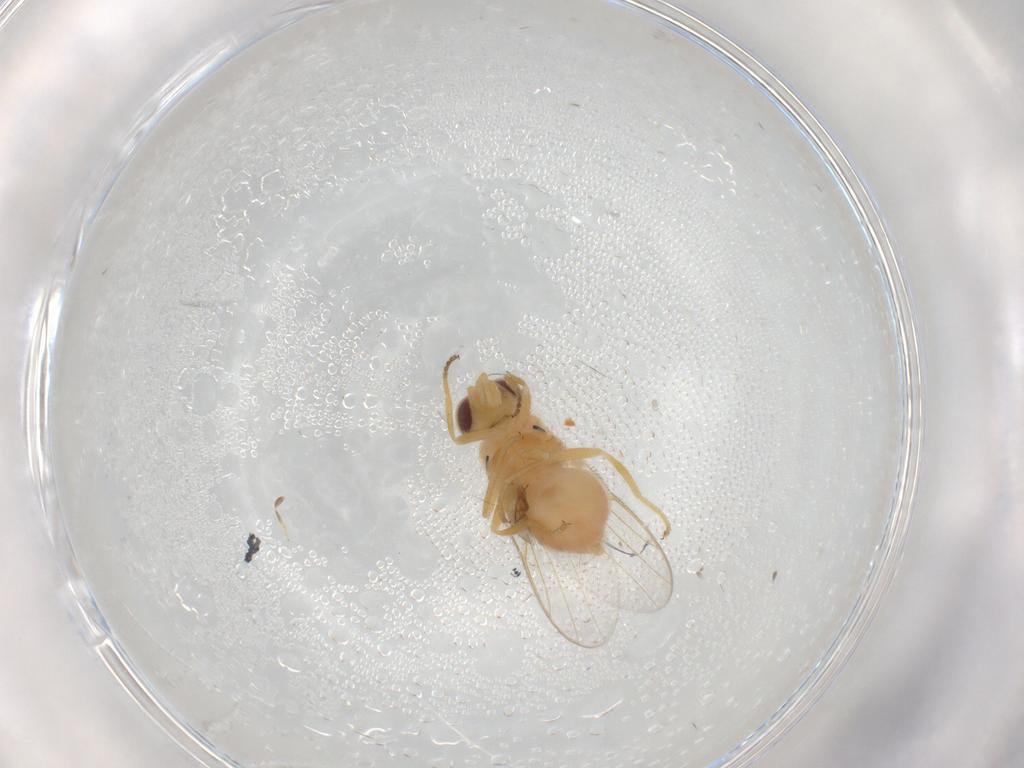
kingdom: Animalia
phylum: Arthropoda
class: Insecta
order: Diptera
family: Chloropidae
